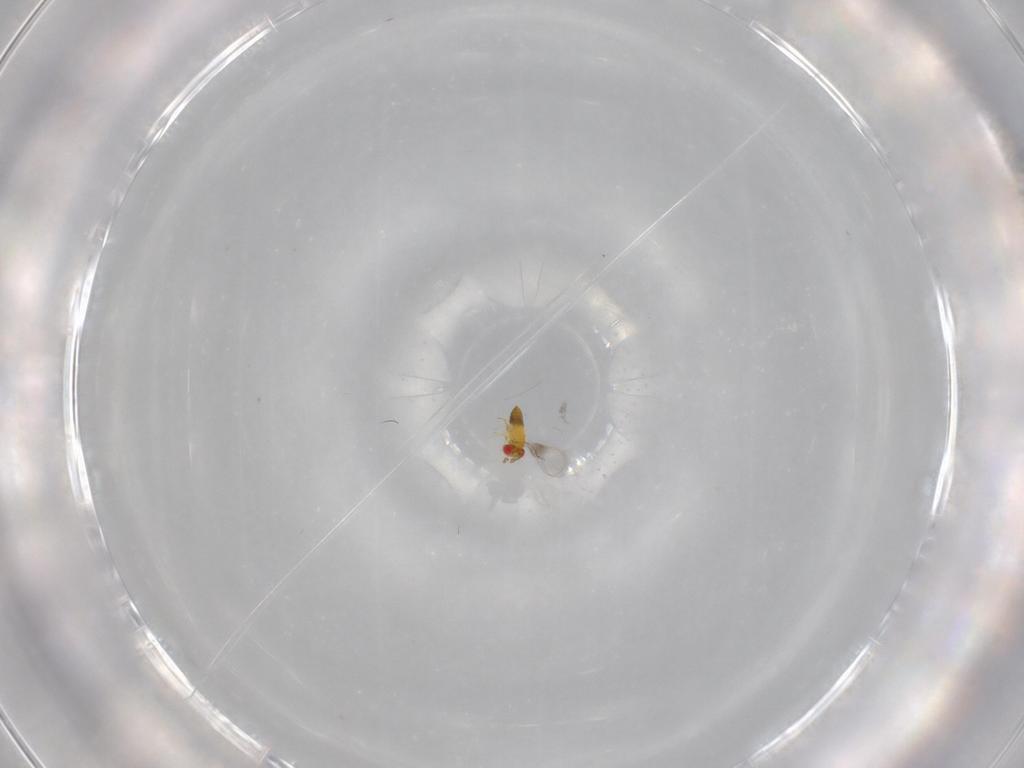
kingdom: Animalia
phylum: Arthropoda
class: Insecta
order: Hymenoptera
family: Trichogrammatidae
